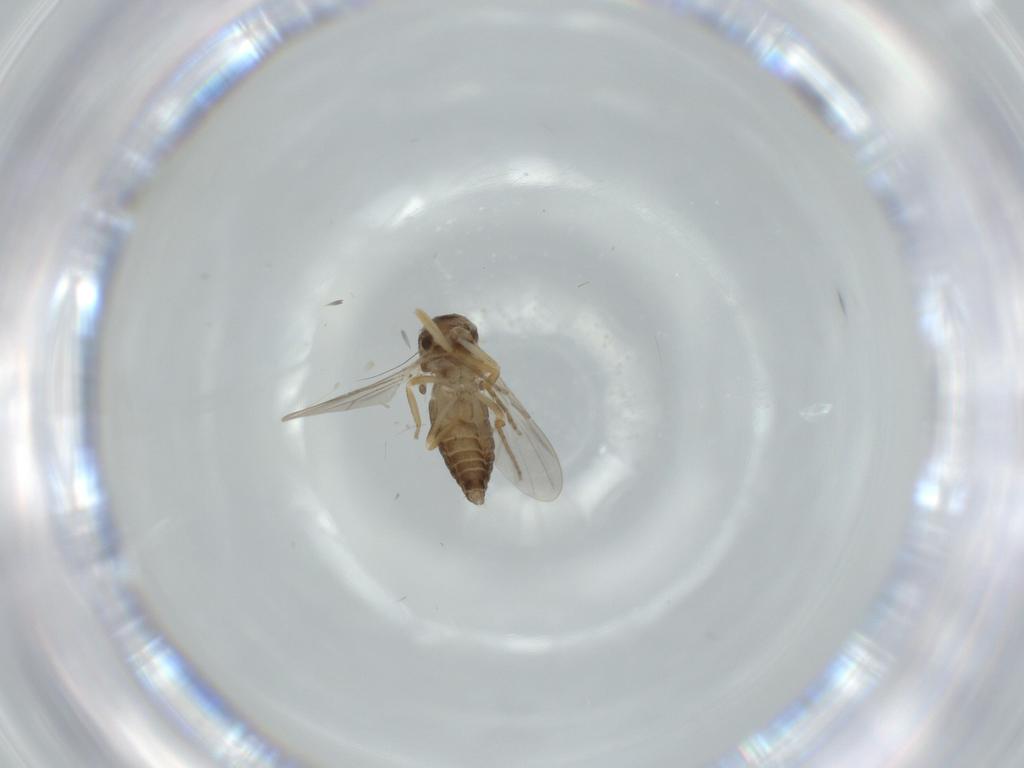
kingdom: Animalia
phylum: Arthropoda
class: Insecta
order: Diptera
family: Ceratopogonidae
